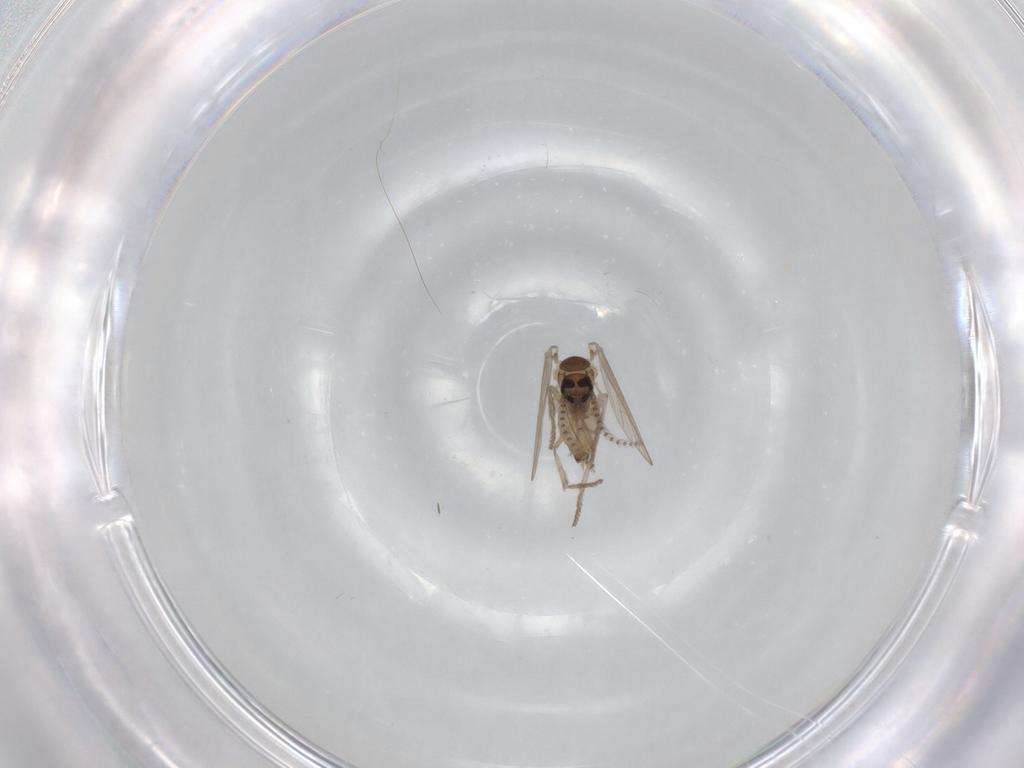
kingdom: Animalia
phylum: Arthropoda
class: Insecta
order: Diptera
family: Psychodidae
